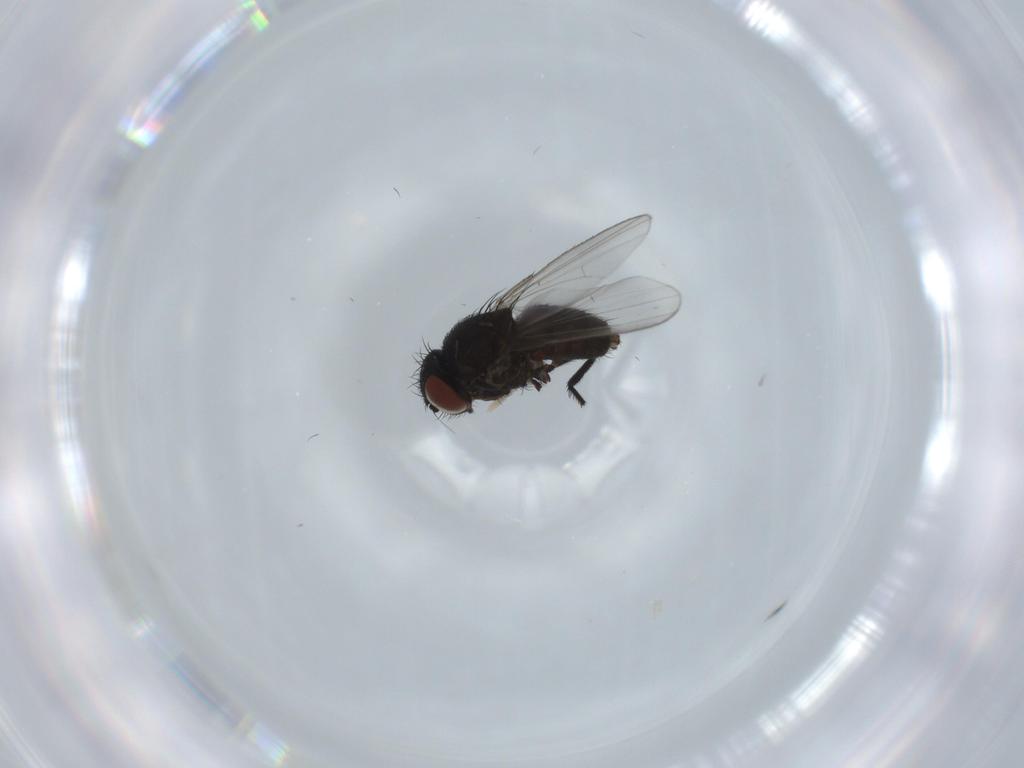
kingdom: Animalia
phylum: Arthropoda
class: Insecta
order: Diptera
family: Milichiidae
